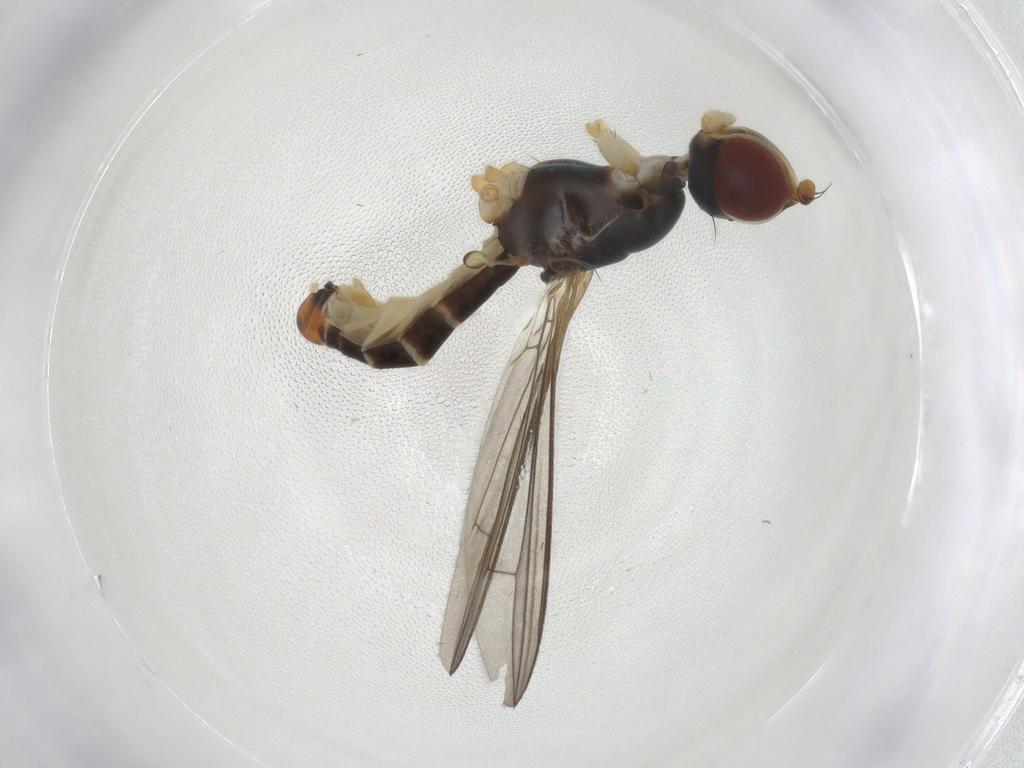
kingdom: Animalia
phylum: Arthropoda
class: Insecta
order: Diptera
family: Micropezidae
